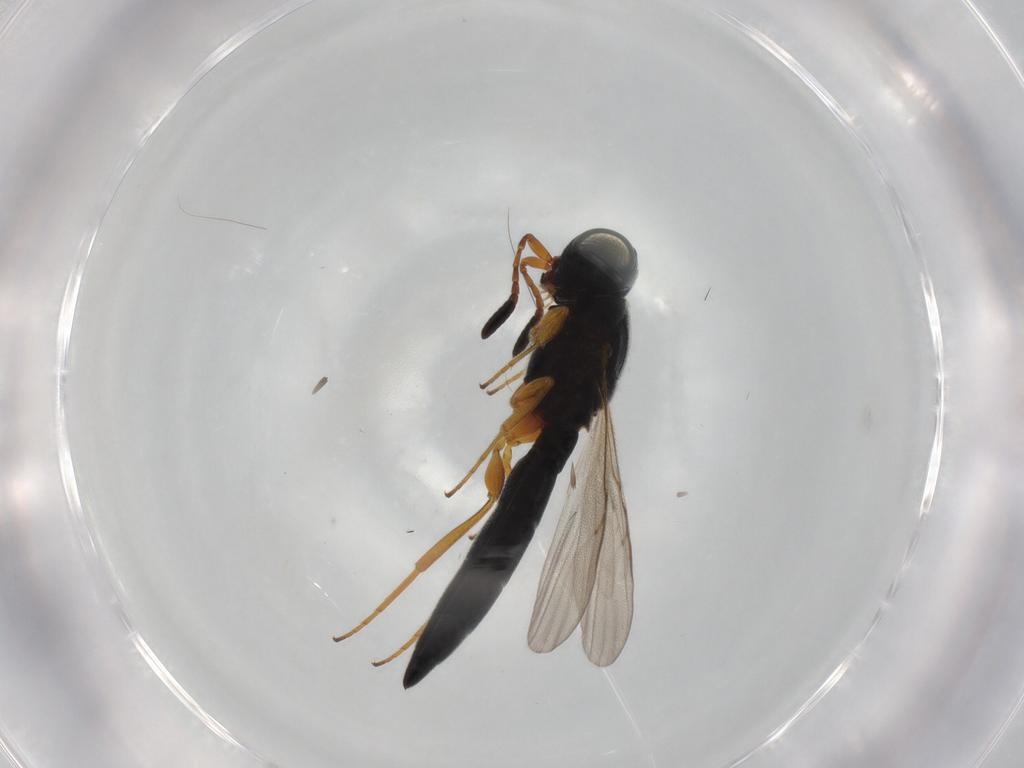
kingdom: Animalia
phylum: Arthropoda
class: Insecta
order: Hymenoptera
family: Scelionidae
